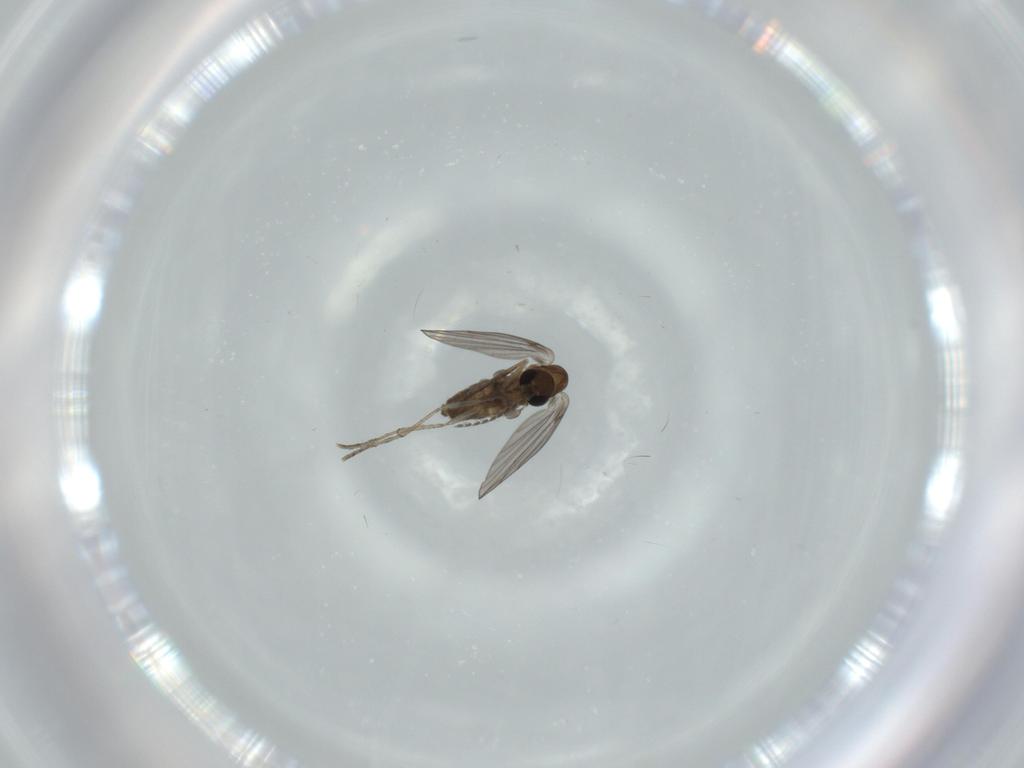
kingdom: Animalia
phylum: Arthropoda
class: Insecta
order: Diptera
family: Psychodidae
